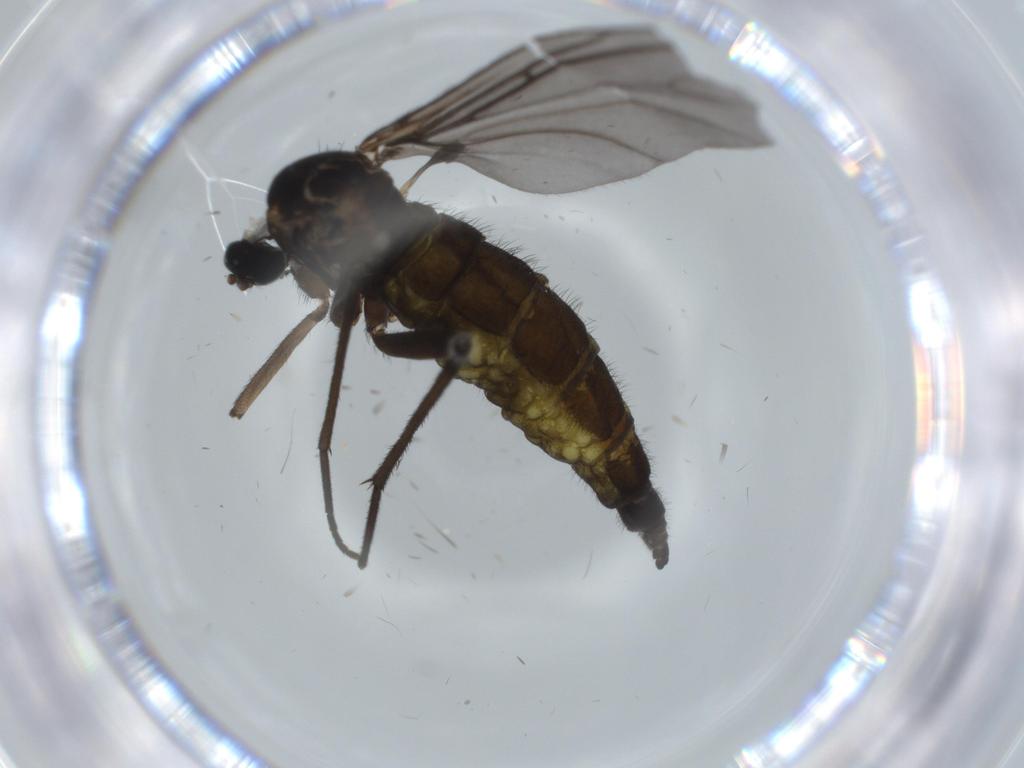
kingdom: Animalia
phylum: Arthropoda
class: Insecta
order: Diptera
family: Sciaridae
